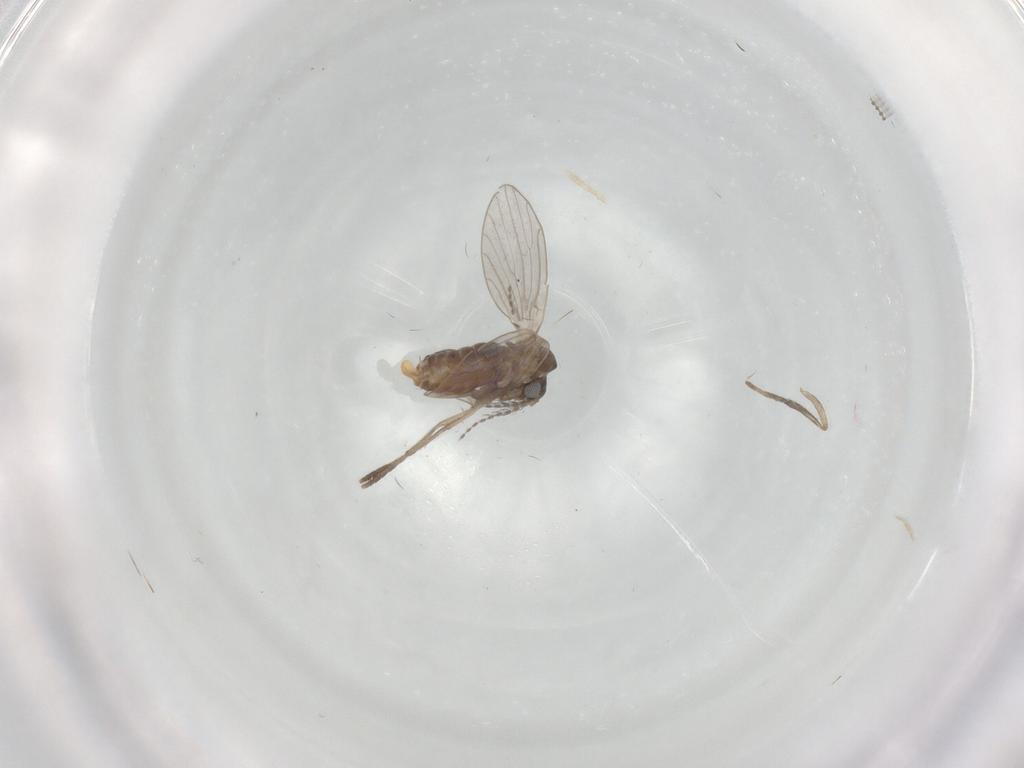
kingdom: Animalia
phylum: Arthropoda
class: Insecta
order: Diptera
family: Psychodidae
